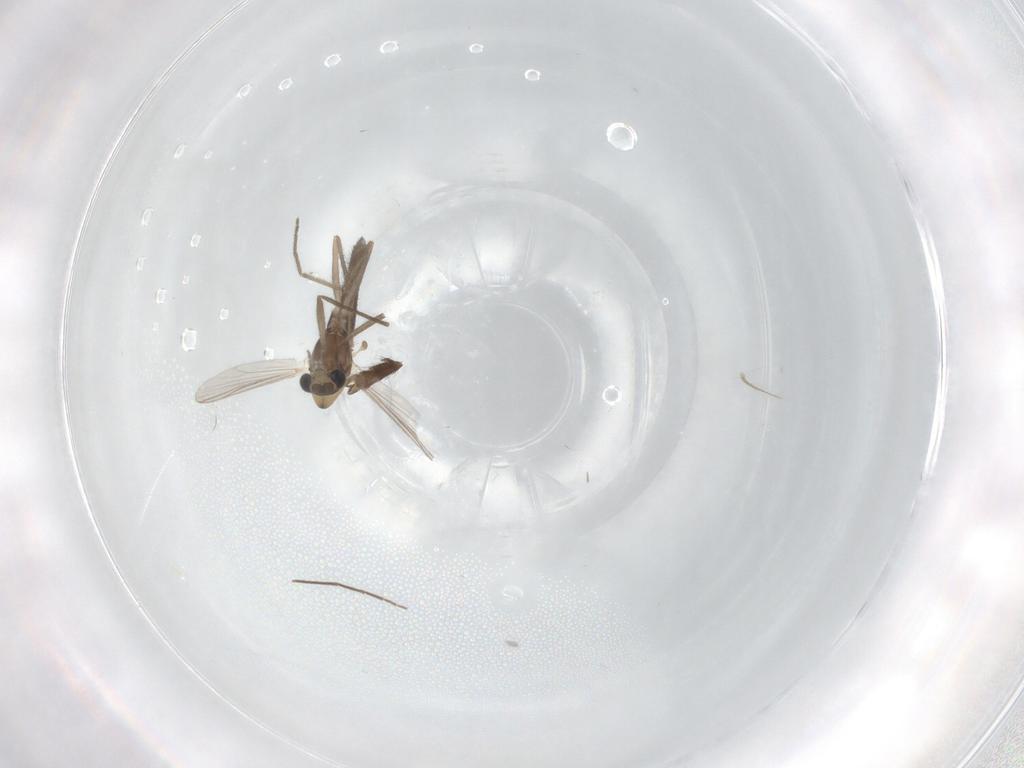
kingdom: Animalia
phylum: Arthropoda
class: Insecta
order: Diptera
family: Chironomidae
